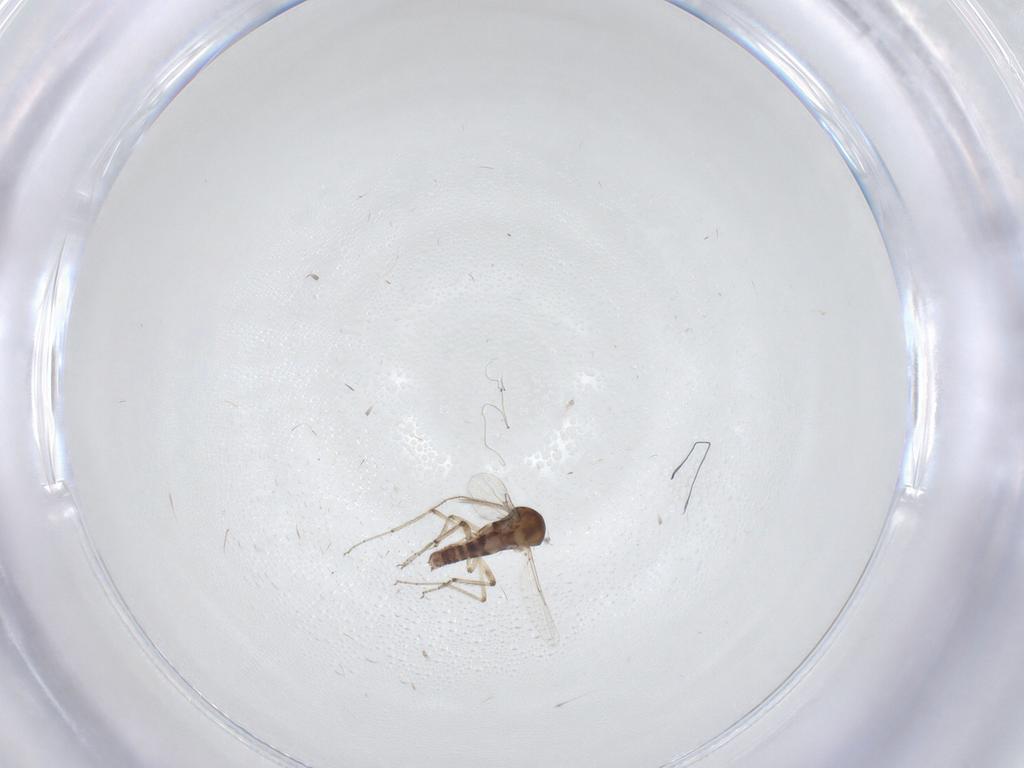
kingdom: Animalia
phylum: Arthropoda
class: Insecta
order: Diptera
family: Ceratopogonidae
